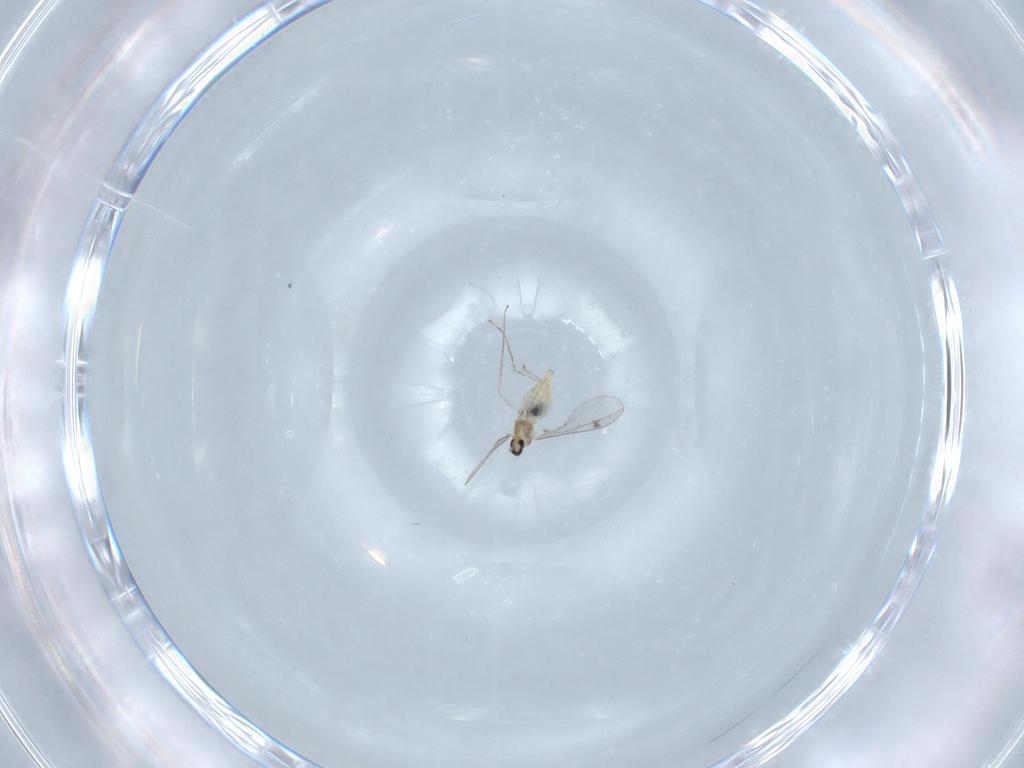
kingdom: Animalia
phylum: Arthropoda
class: Insecta
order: Diptera
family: Cecidomyiidae
